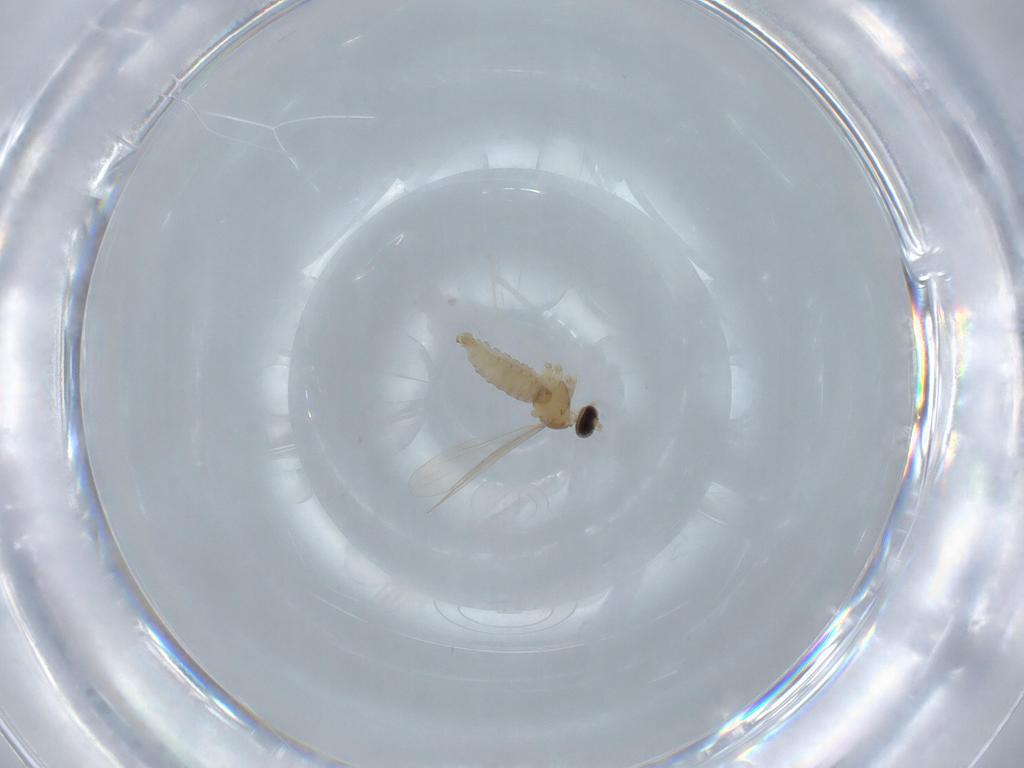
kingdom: Animalia
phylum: Arthropoda
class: Insecta
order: Diptera
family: Cecidomyiidae
